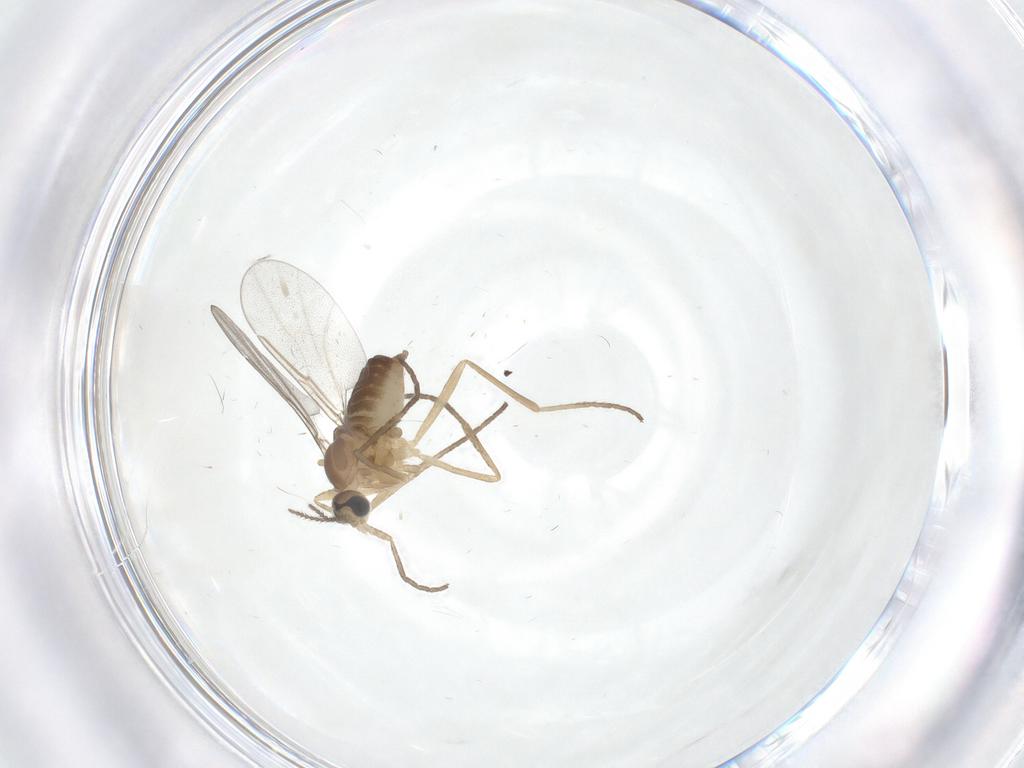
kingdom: Animalia
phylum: Arthropoda
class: Insecta
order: Diptera
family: Cecidomyiidae
